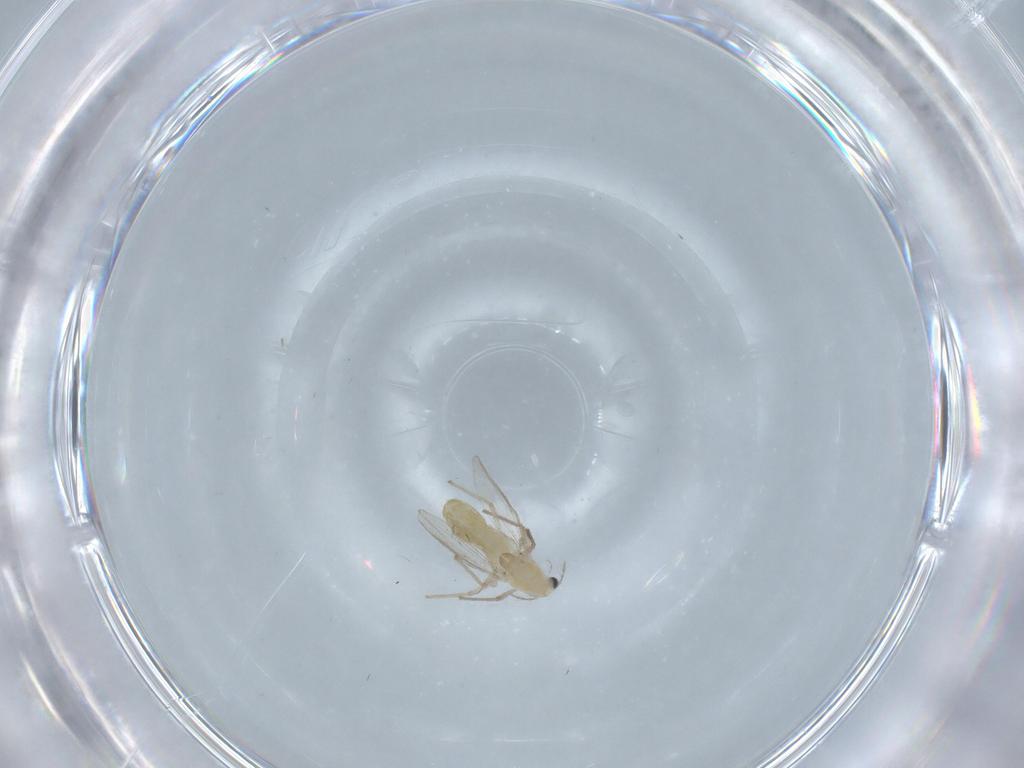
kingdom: Animalia
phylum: Arthropoda
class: Insecta
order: Diptera
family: Chironomidae
